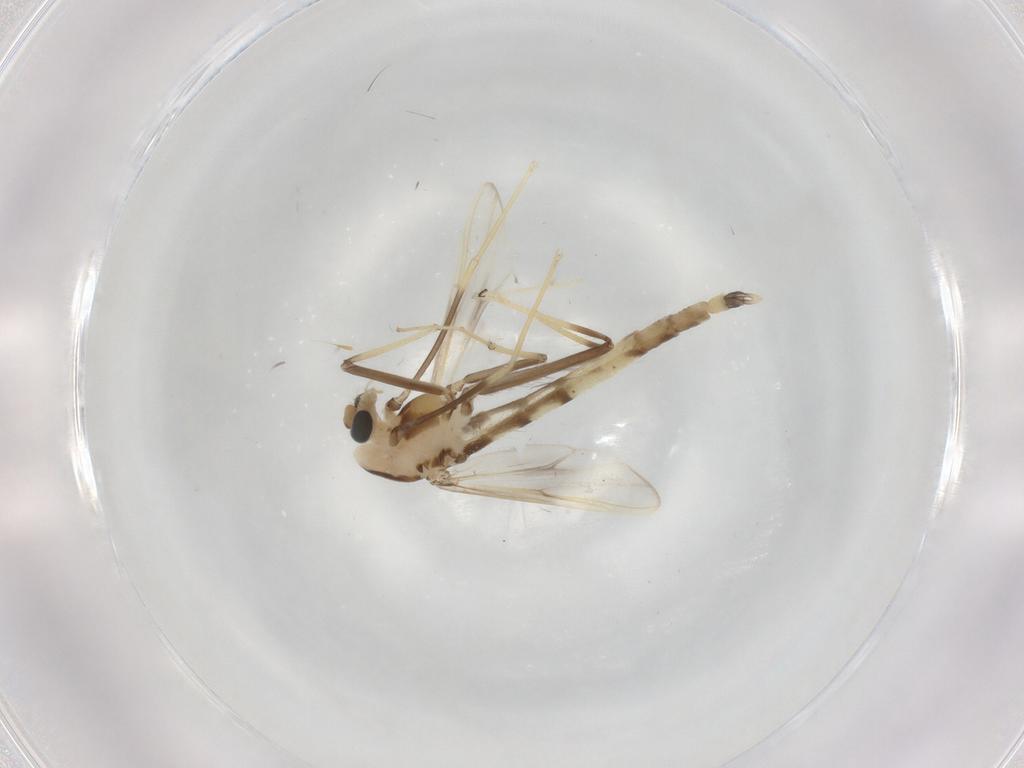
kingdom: Animalia
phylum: Arthropoda
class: Insecta
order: Diptera
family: Chironomidae
